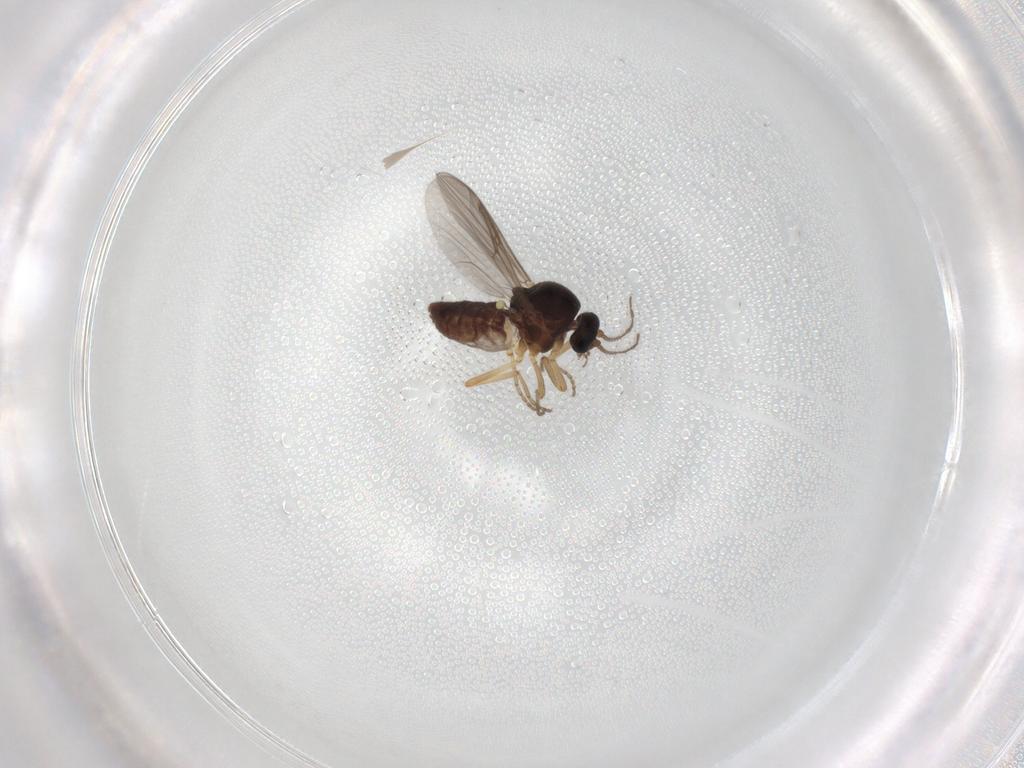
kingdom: Animalia
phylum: Arthropoda
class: Insecta
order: Diptera
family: Ceratopogonidae
